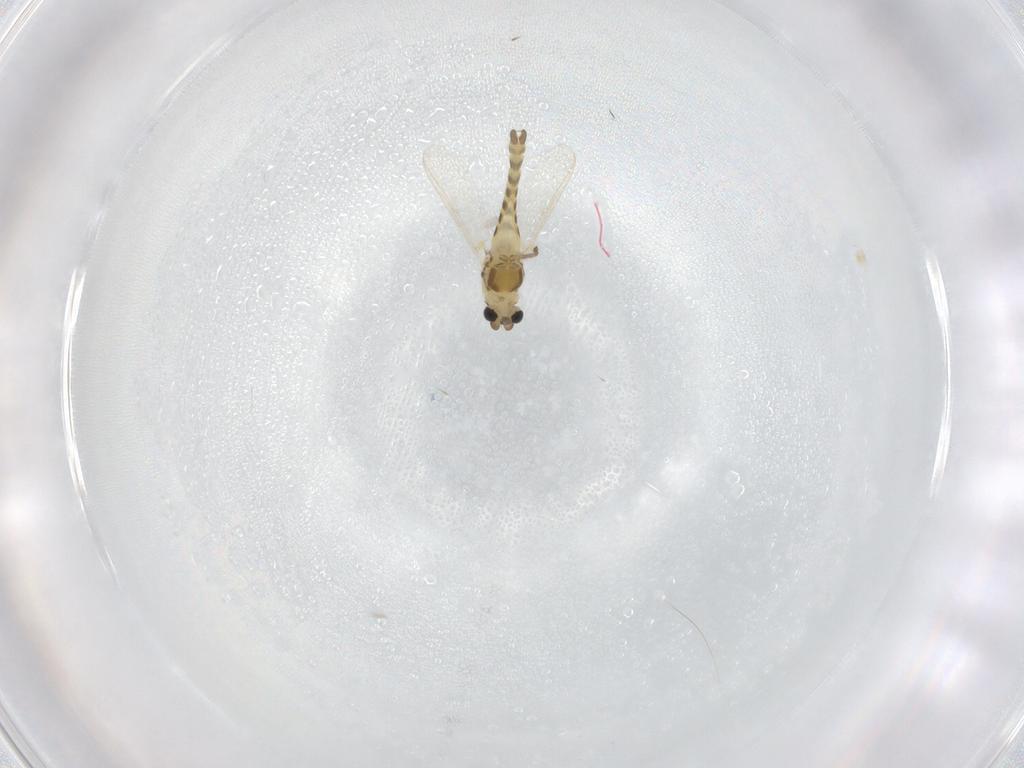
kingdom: Animalia
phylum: Arthropoda
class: Insecta
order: Diptera
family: Chironomidae
